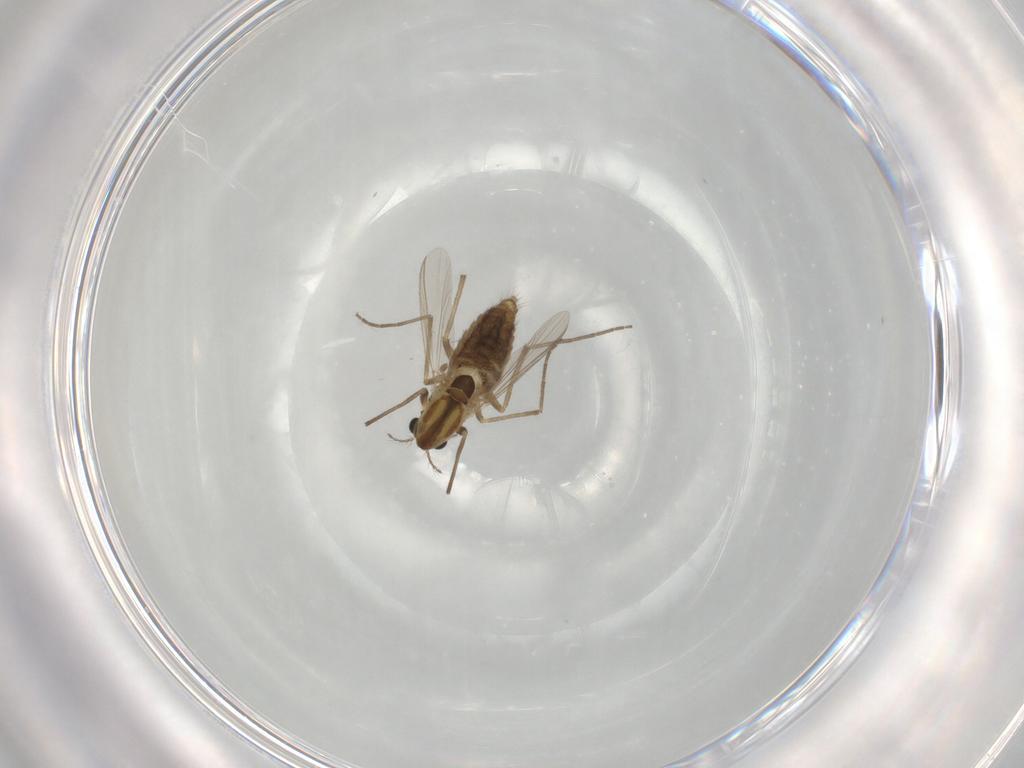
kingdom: Animalia
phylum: Arthropoda
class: Insecta
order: Diptera
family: Chironomidae
